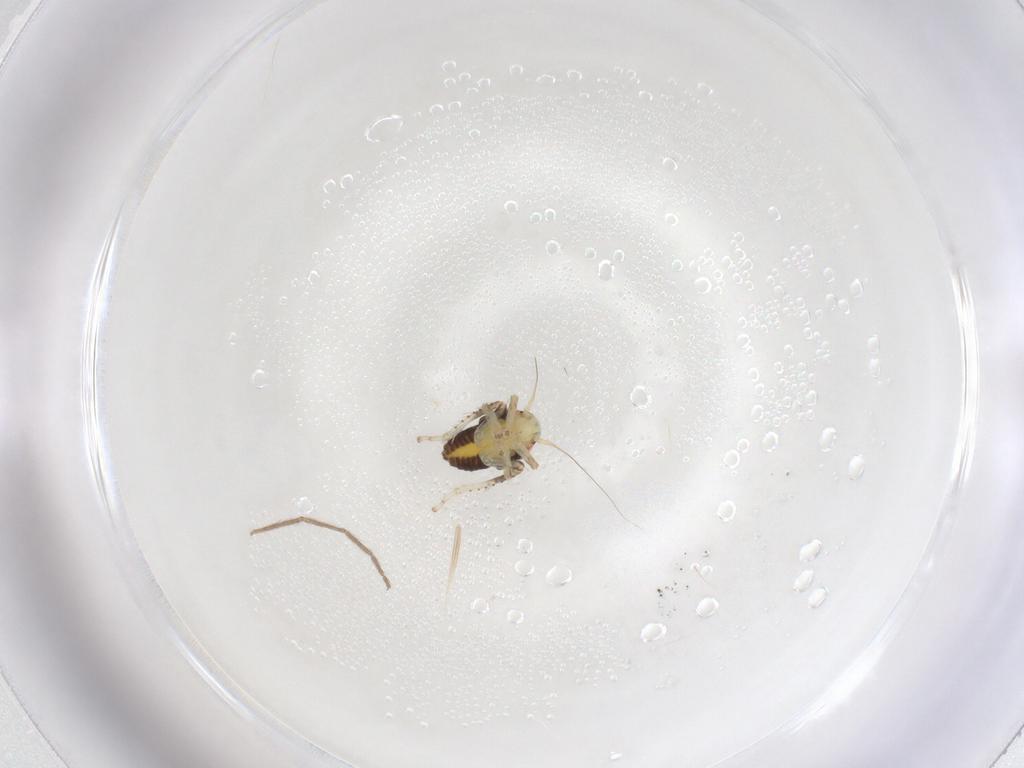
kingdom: Animalia
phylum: Arthropoda
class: Insecta
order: Hemiptera
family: Cicadellidae
